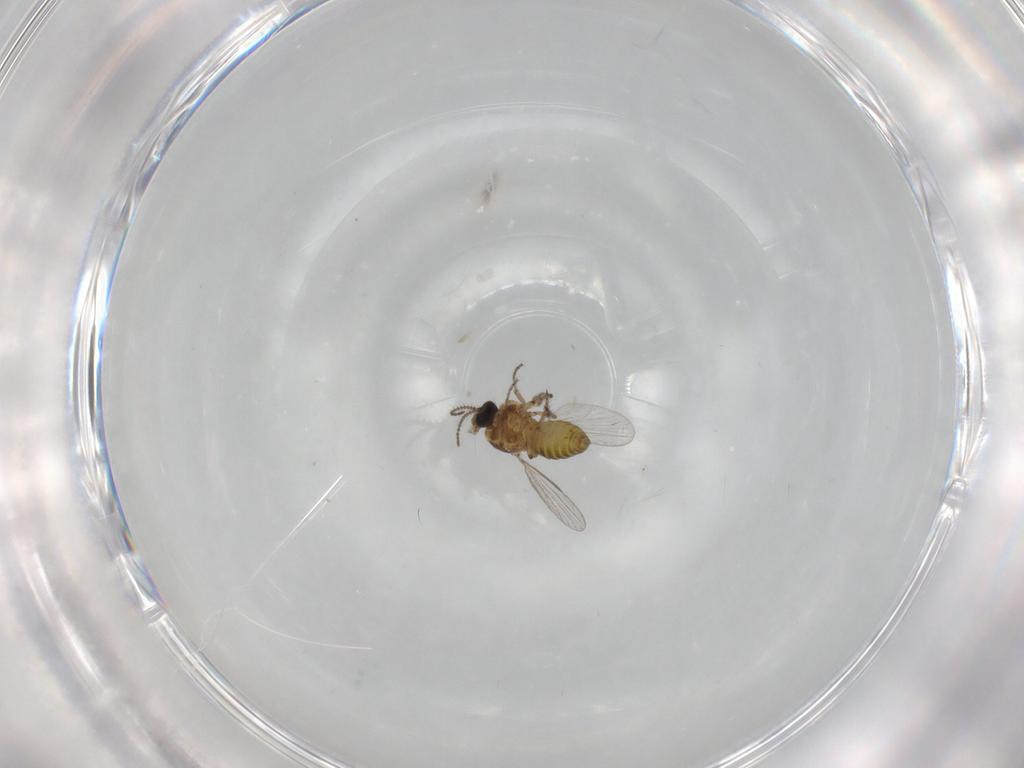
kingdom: Animalia
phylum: Arthropoda
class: Insecta
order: Diptera
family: Ceratopogonidae
